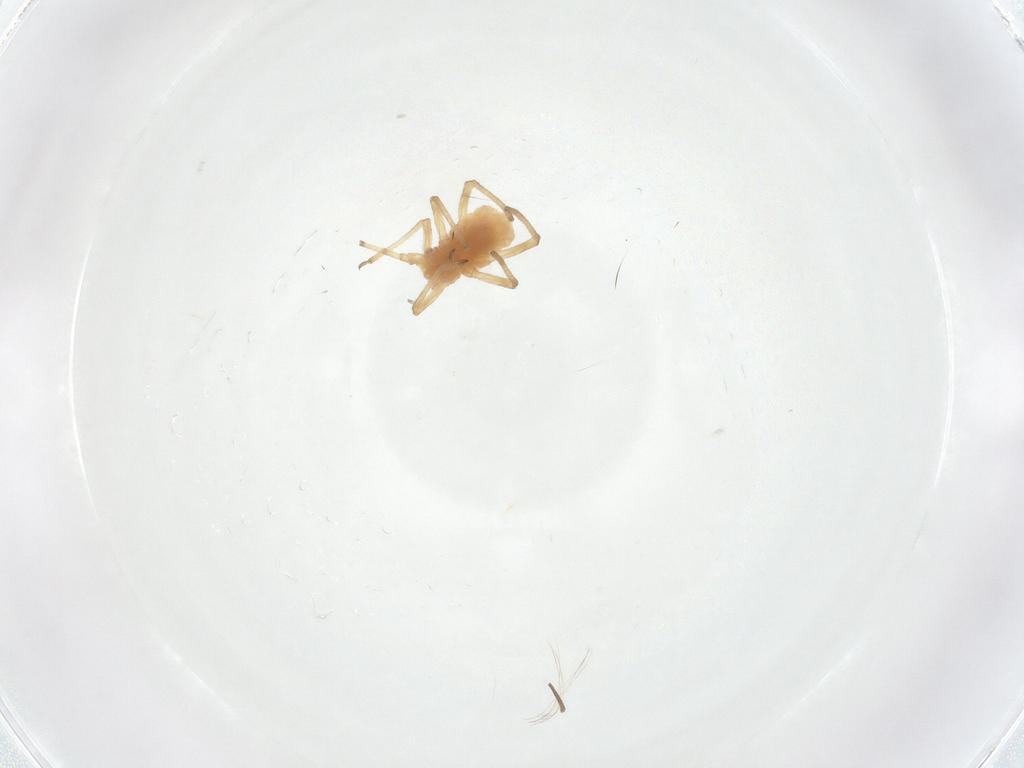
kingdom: Animalia
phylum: Arthropoda
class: Insecta
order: Hemiptera
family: Aphididae
